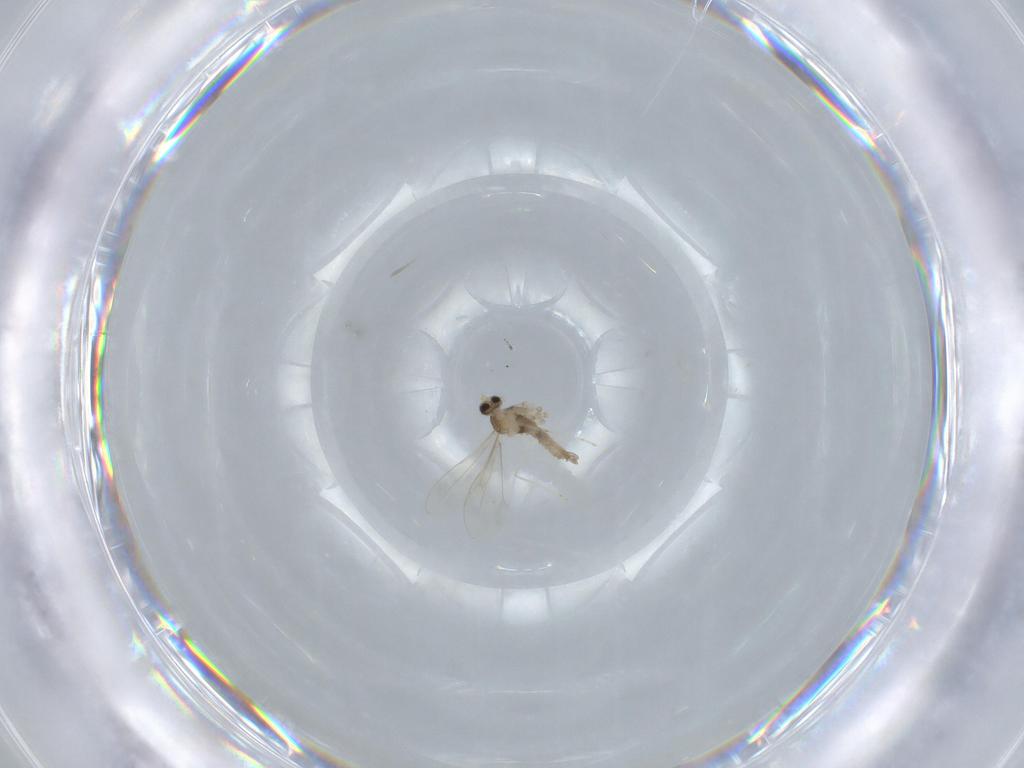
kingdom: Animalia
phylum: Arthropoda
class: Insecta
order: Diptera
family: Cecidomyiidae
